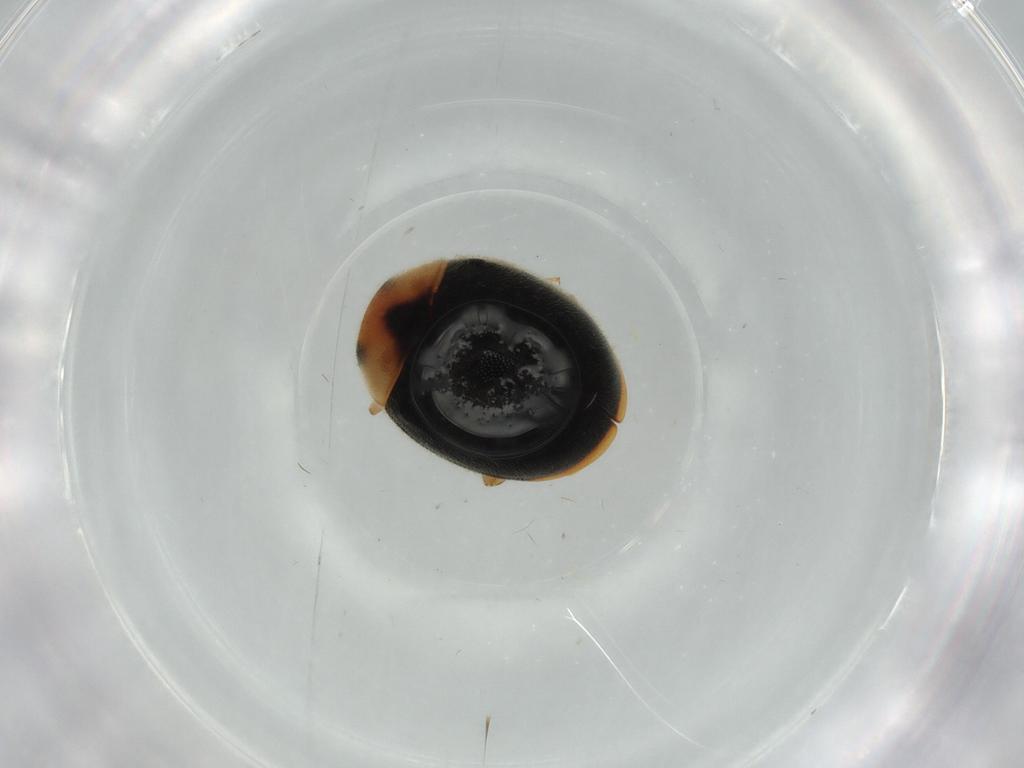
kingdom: Animalia
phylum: Arthropoda
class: Insecta
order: Coleoptera
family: Coccinellidae
